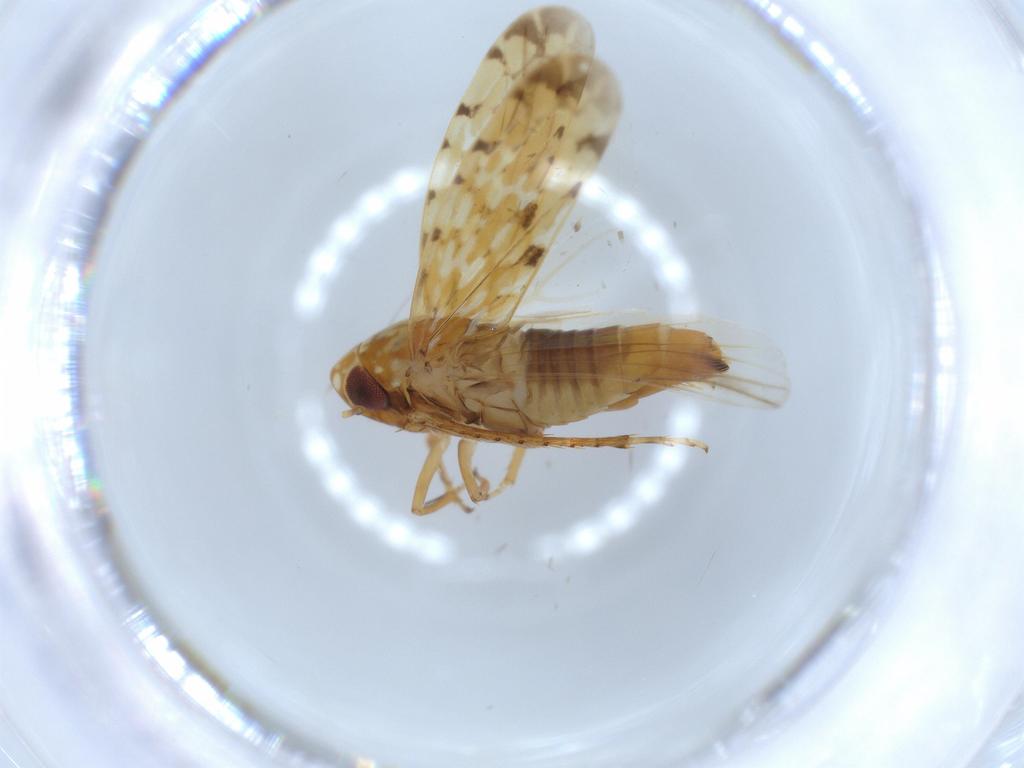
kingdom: Animalia
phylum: Arthropoda
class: Insecta
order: Hemiptera
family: Cicadellidae
